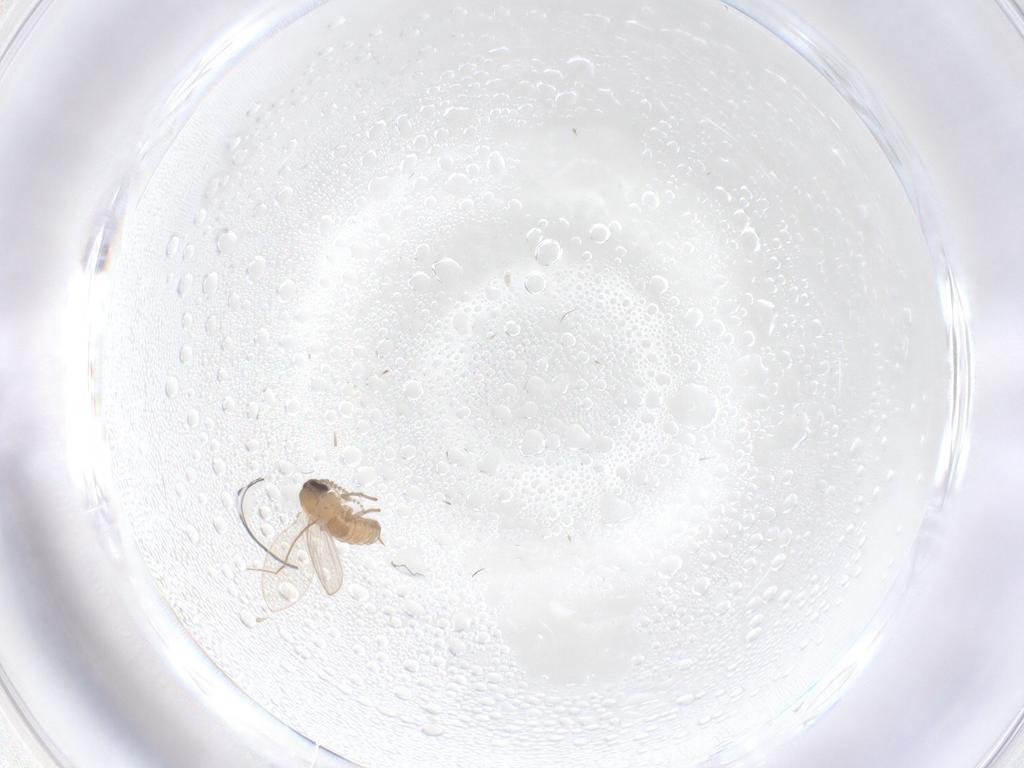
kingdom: Animalia
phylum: Arthropoda
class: Insecta
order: Diptera
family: Psychodidae
